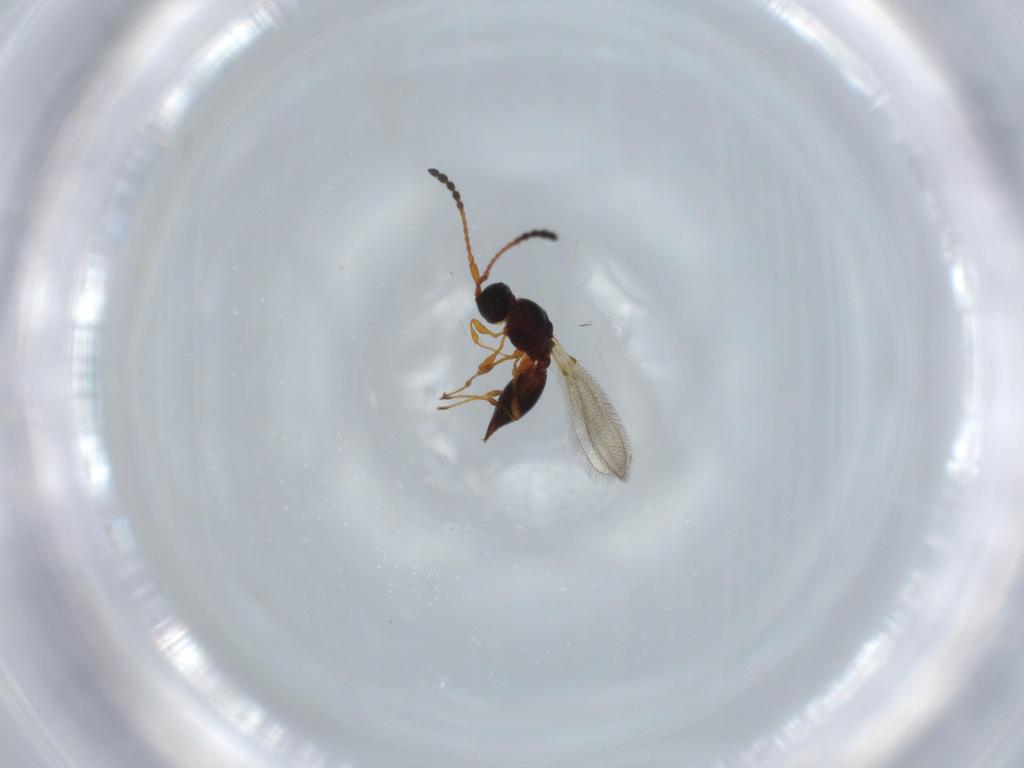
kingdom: Animalia
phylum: Arthropoda
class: Insecta
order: Hymenoptera
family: Diapriidae
